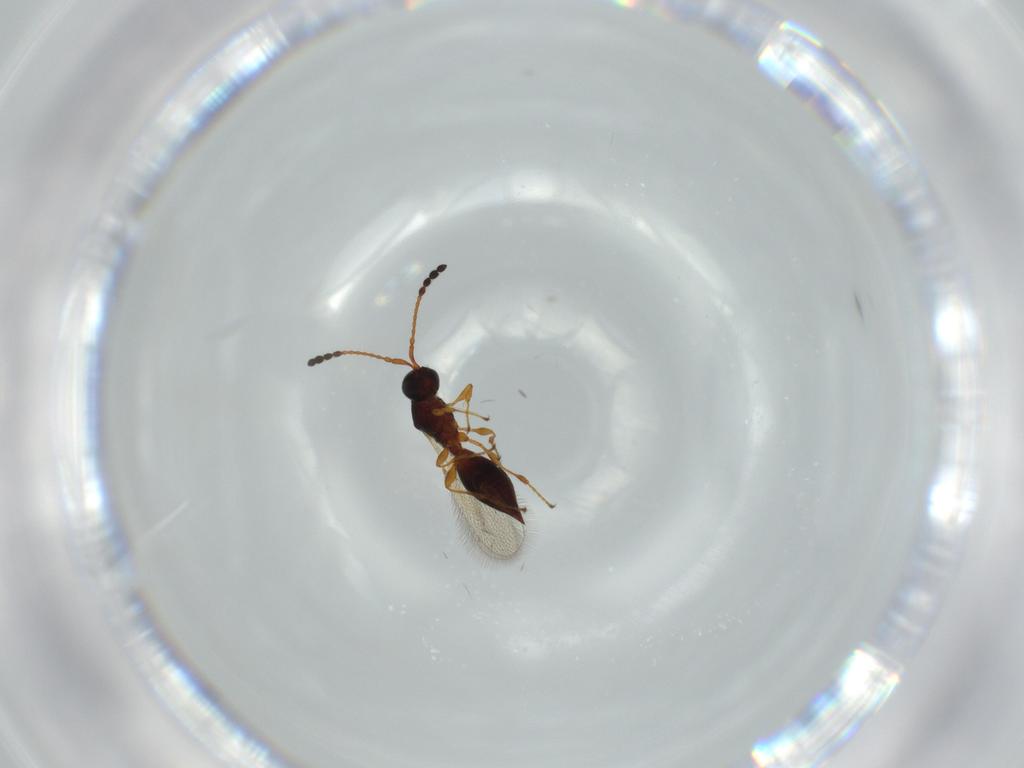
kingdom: Animalia
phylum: Arthropoda
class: Insecta
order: Hymenoptera
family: Diapriidae
